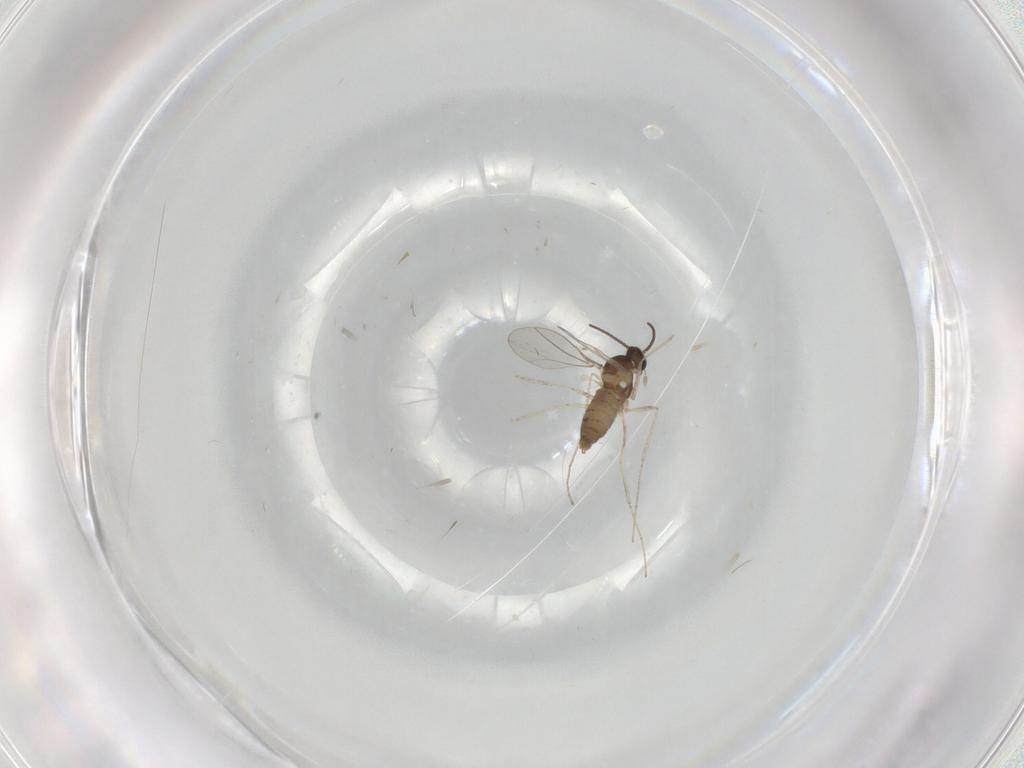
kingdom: Animalia
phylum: Arthropoda
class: Insecta
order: Diptera
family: Cecidomyiidae
